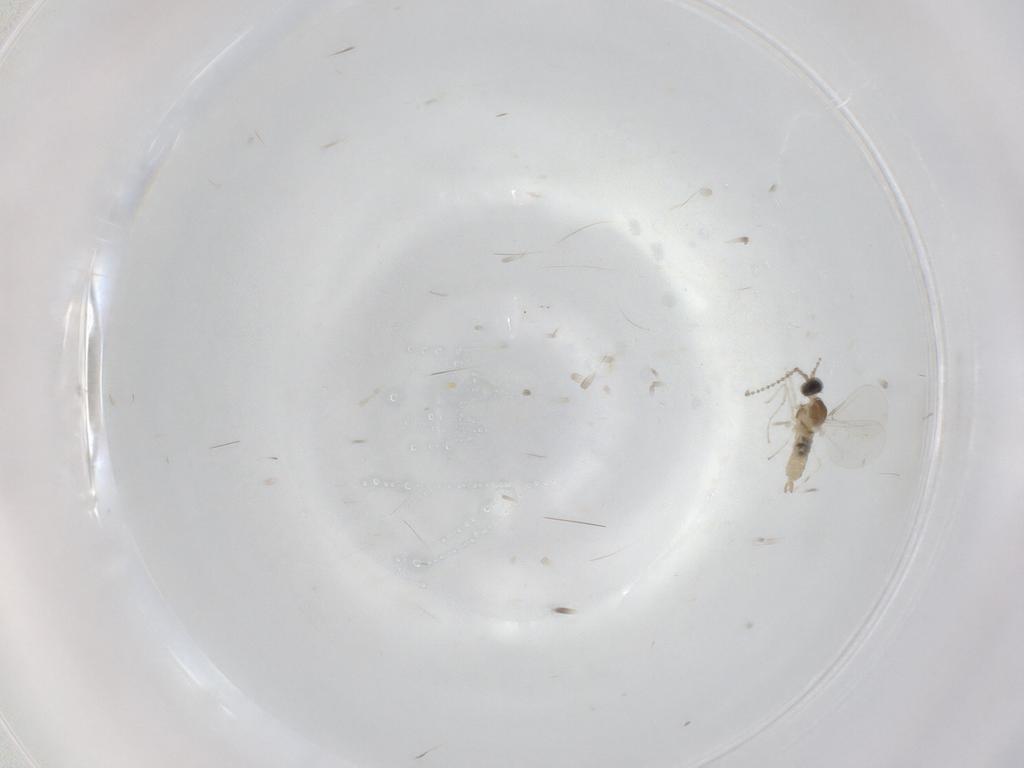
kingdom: Animalia
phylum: Arthropoda
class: Insecta
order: Diptera
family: Cecidomyiidae
